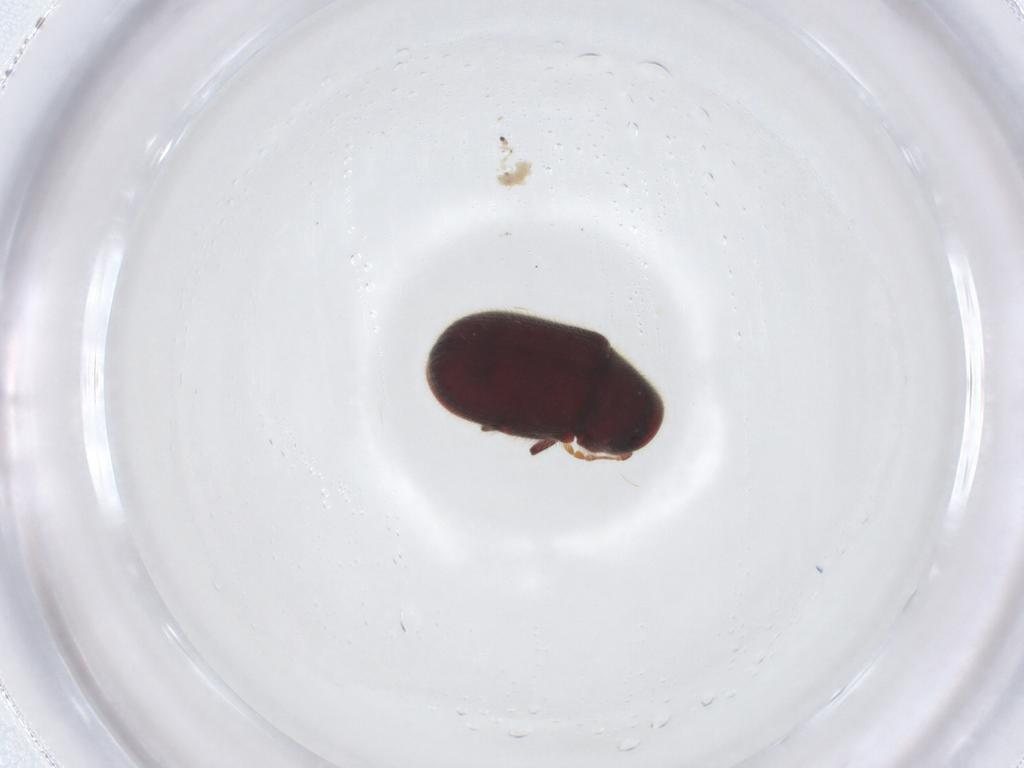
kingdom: Animalia
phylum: Arthropoda
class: Insecta
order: Coleoptera
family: Ptinidae
